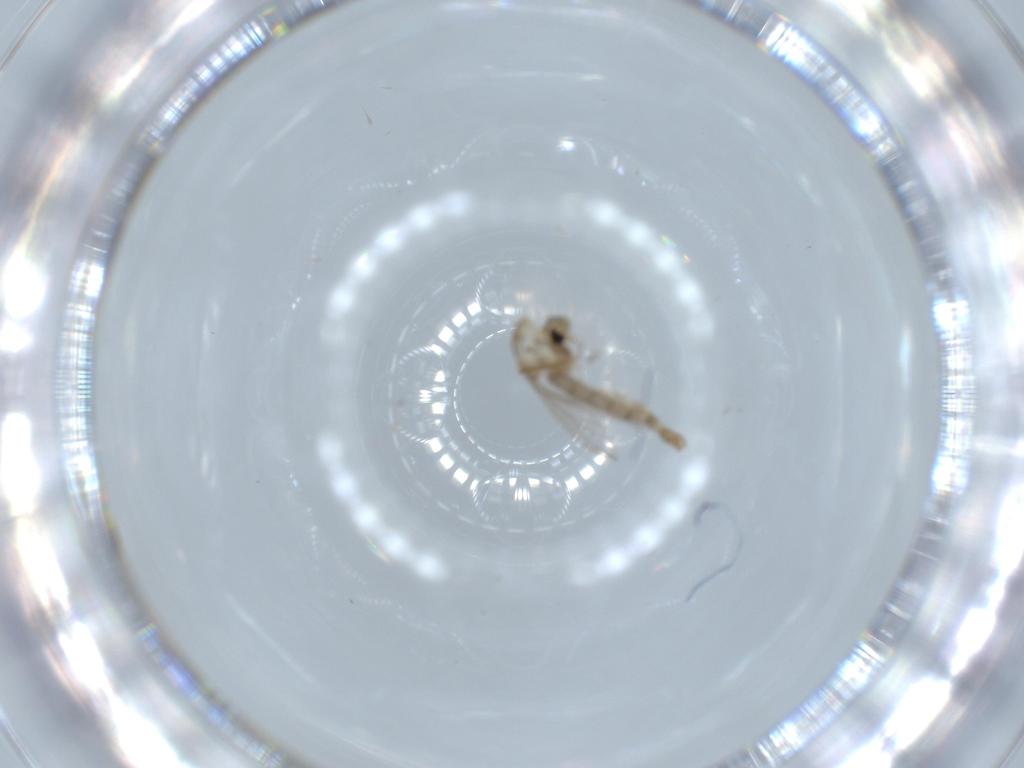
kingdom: Animalia
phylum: Arthropoda
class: Insecta
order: Diptera
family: Chironomidae
